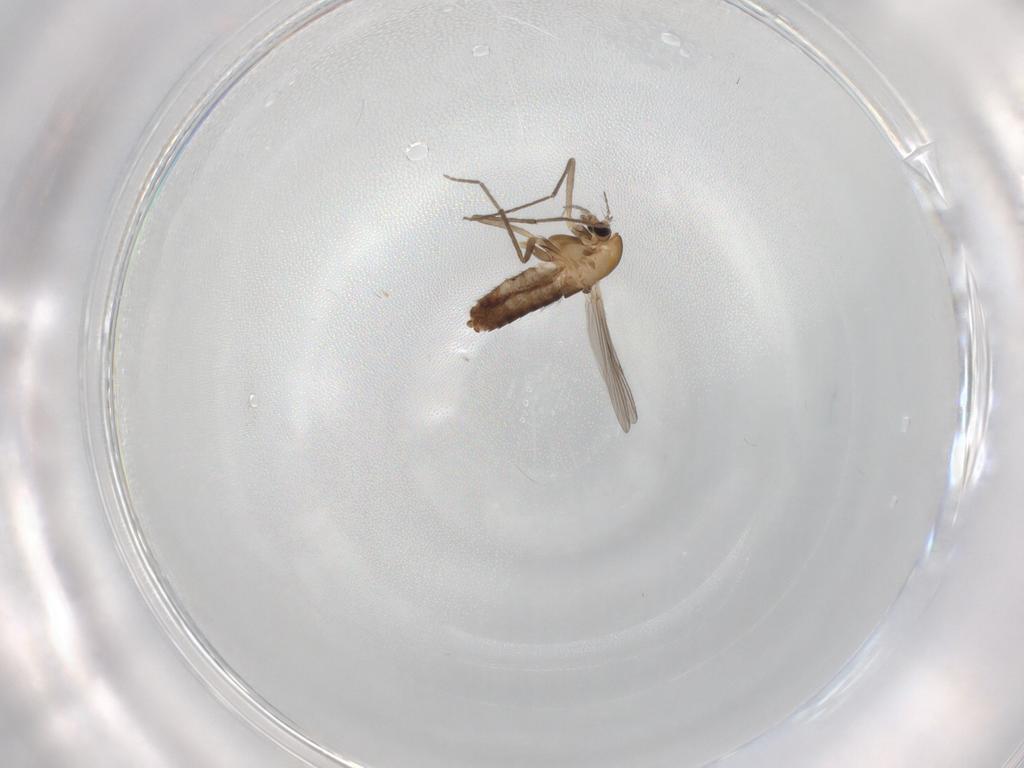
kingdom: Animalia
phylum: Arthropoda
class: Insecta
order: Diptera
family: Chironomidae
